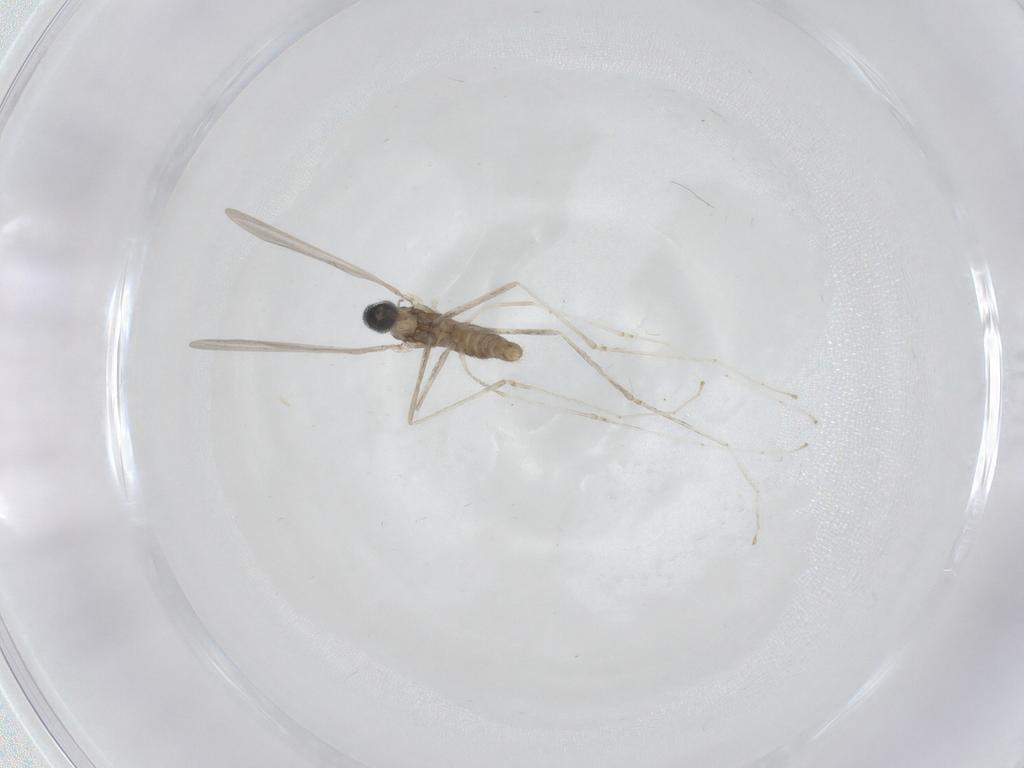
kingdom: Animalia
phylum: Arthropoda
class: Insecta
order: Diptera
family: Cecidomyiidae
